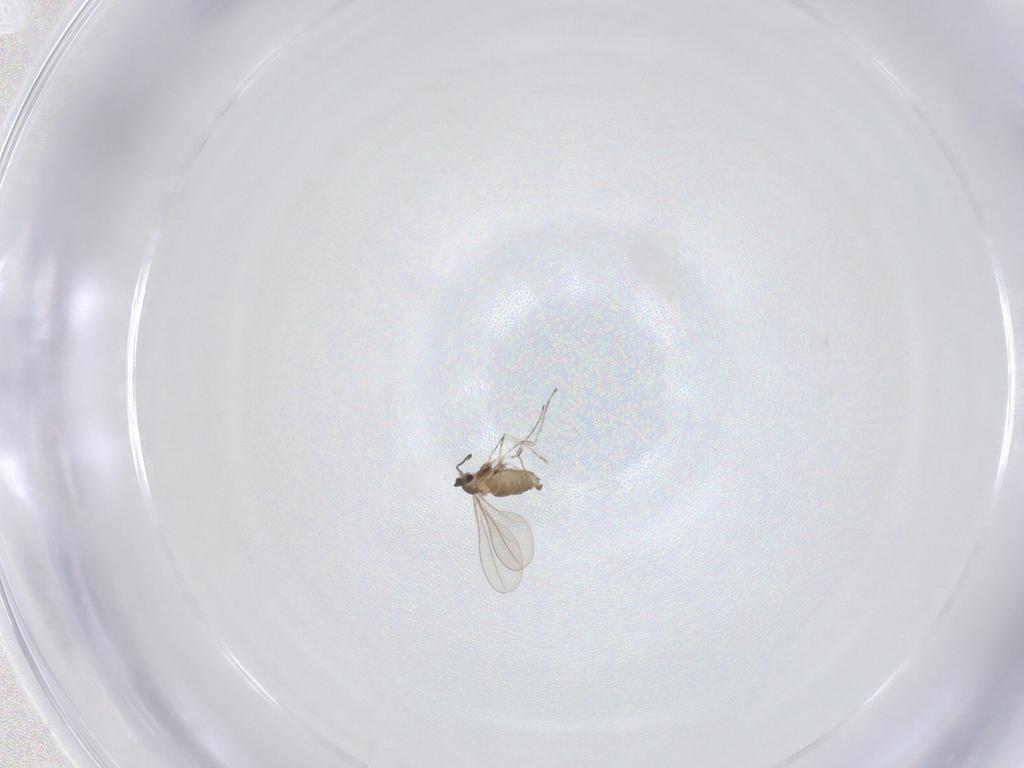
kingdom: Animalia
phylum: Arthropoda
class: Insecta
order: Diptera
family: Cecidomyiidae
